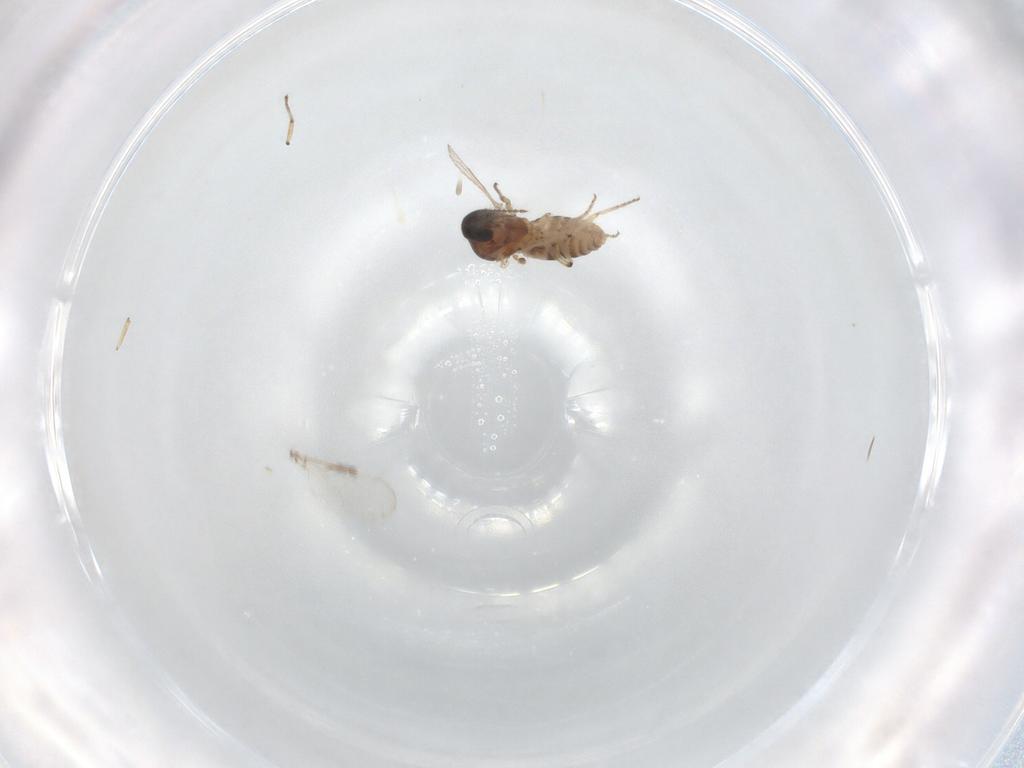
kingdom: Animalia
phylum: Arthropoda
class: Insecta
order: Diptera
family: Ceratopogonidae
